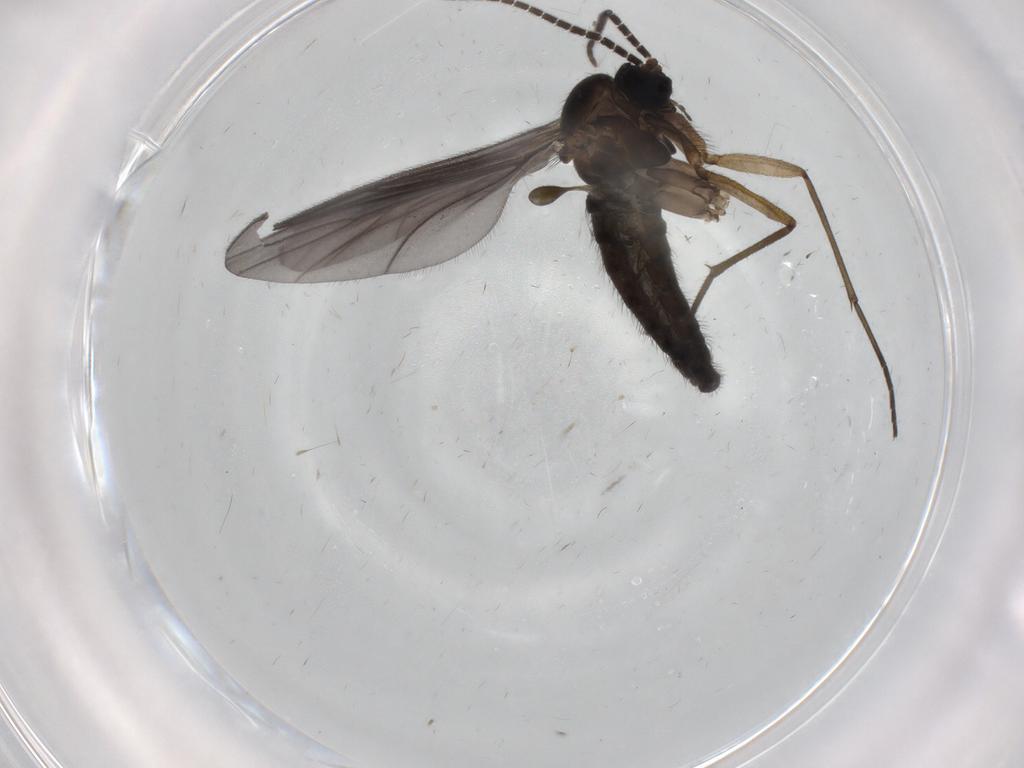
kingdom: Animalia
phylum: Arthropoda
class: Insecta
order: Diptera
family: Sciaridae
